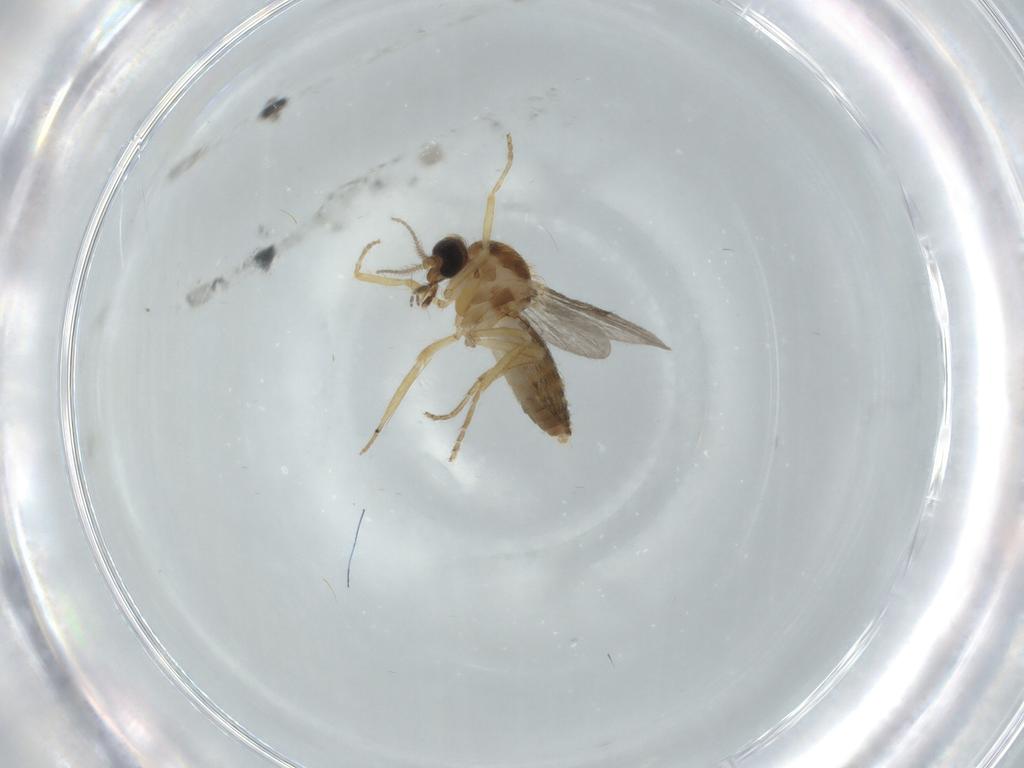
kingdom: Animalia
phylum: Arthropoda
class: Insecta
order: Diptera
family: Ceratopogonidae
